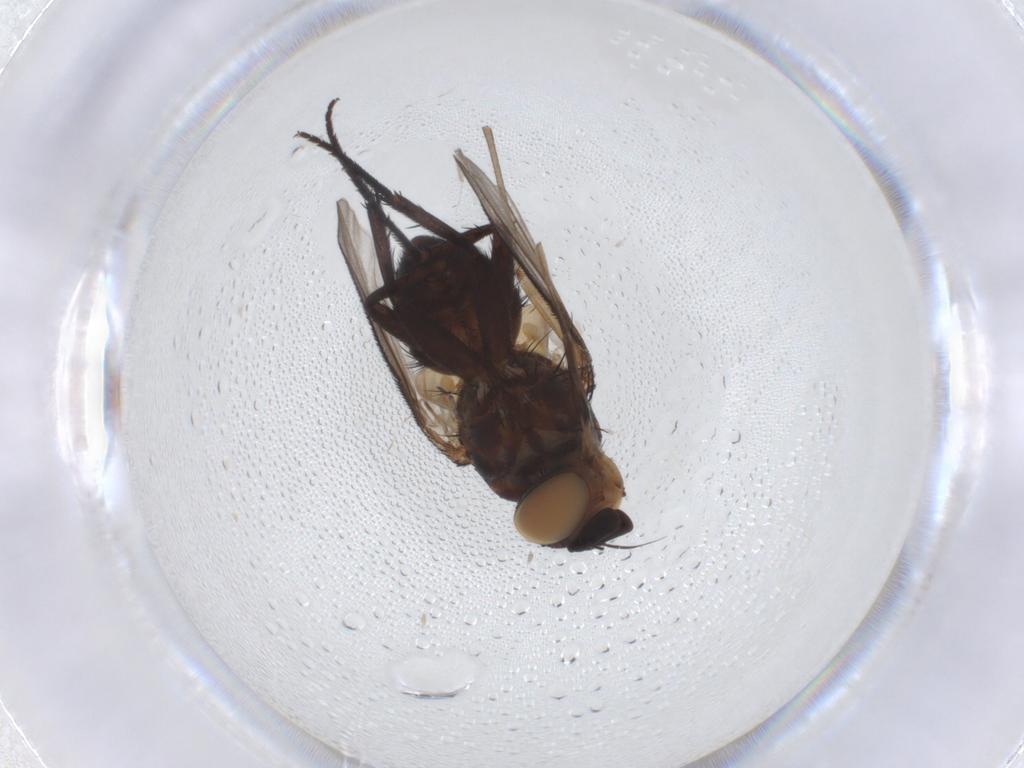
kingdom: Animalia
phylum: Arthropoda
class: Insecta
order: Diptera
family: Tachinidae
